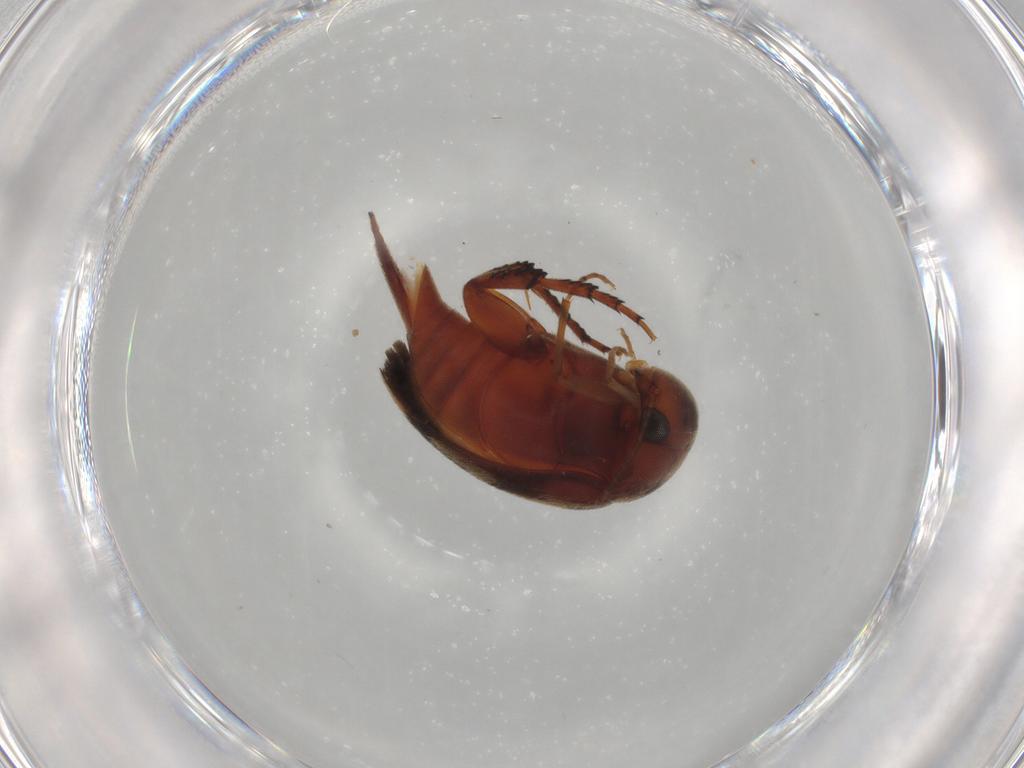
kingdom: Animalia
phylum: Arthropoda
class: Insecta
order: Coleoptera
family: Mordellidae
